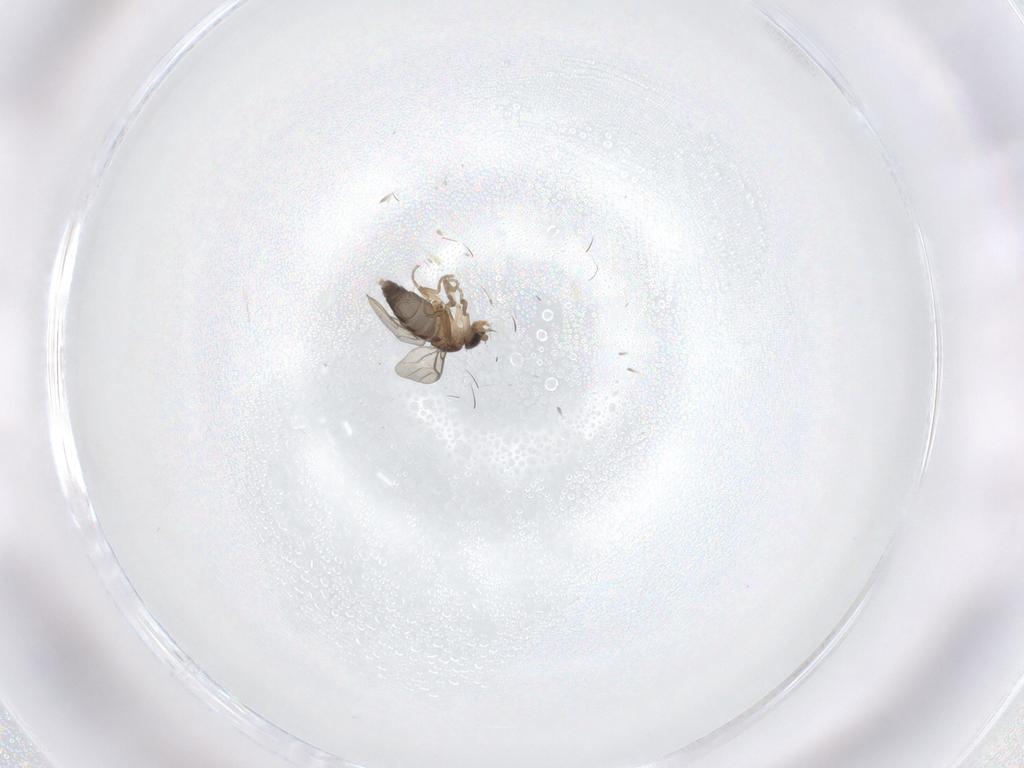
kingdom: Animalia
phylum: Arthropoda
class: Insecta
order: Diptera
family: Phoridae
